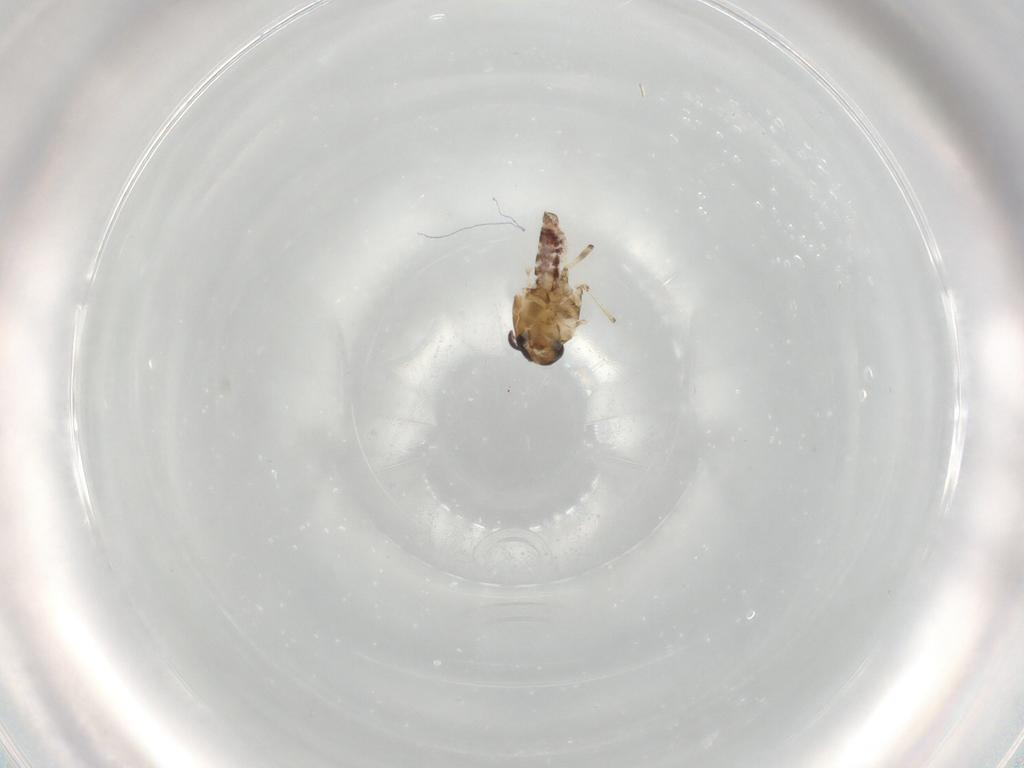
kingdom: Animalia
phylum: Arthropoda
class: Insecta
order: Diptera
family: Ceratopogonidae
